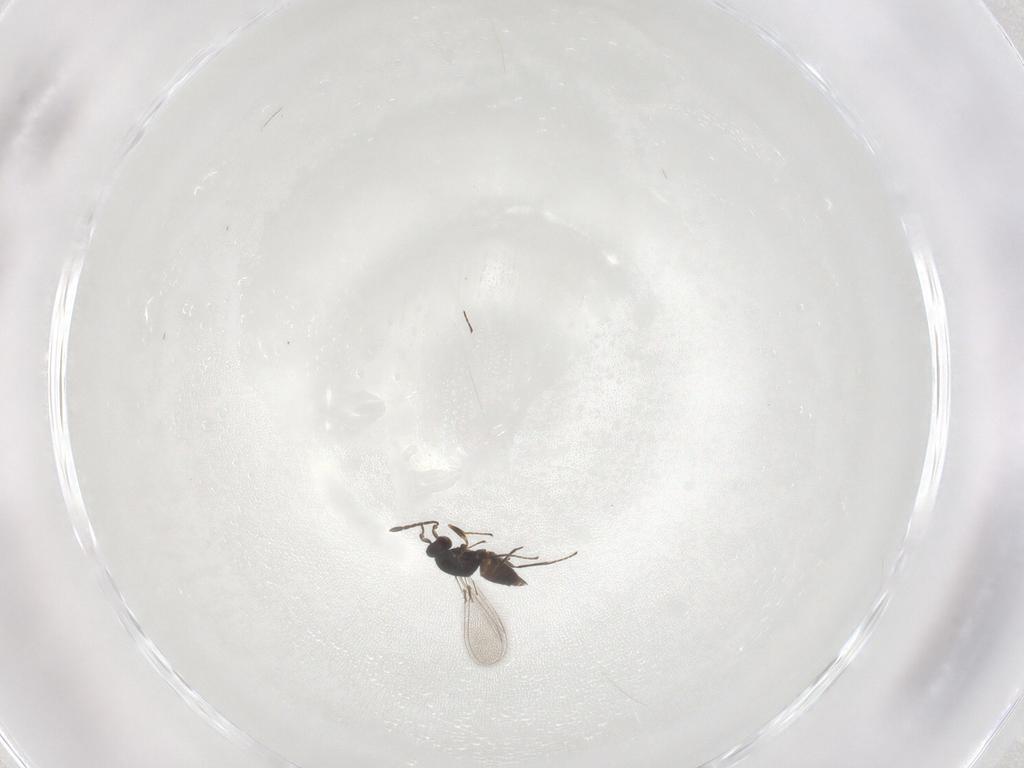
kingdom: Animalia
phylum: Arthropoda
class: Insecta
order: Hymenoptera
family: Mymaridae
